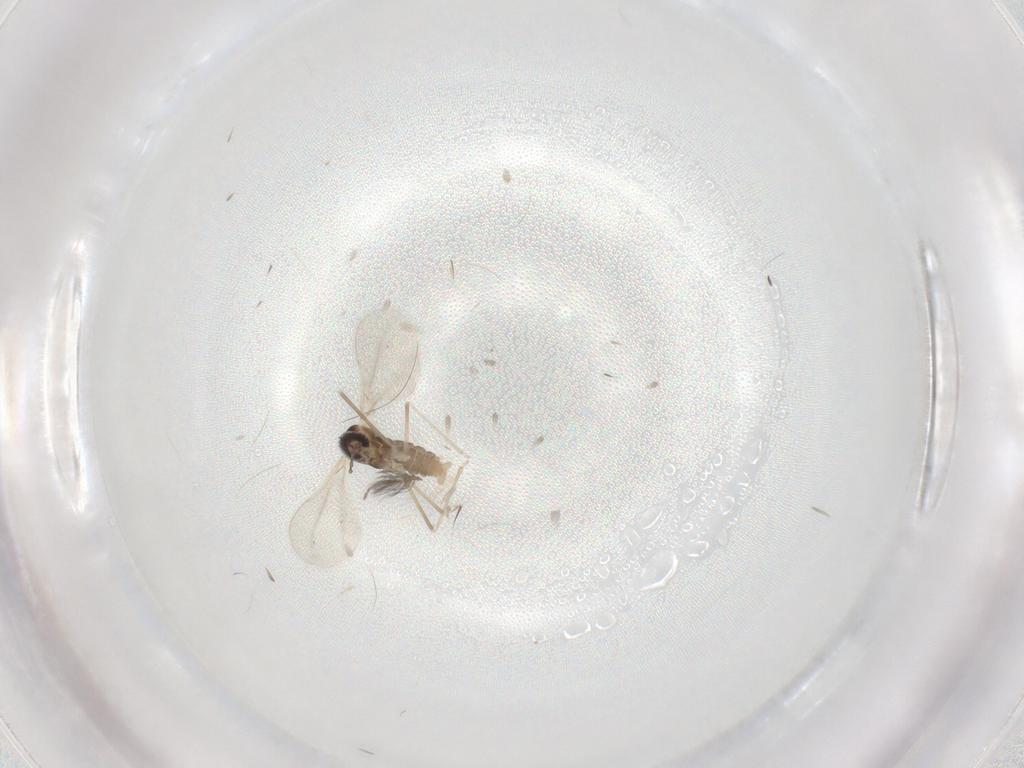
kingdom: Animalia
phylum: Arthropoda
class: Insecta
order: Diptera
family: Cecidomyiidae
